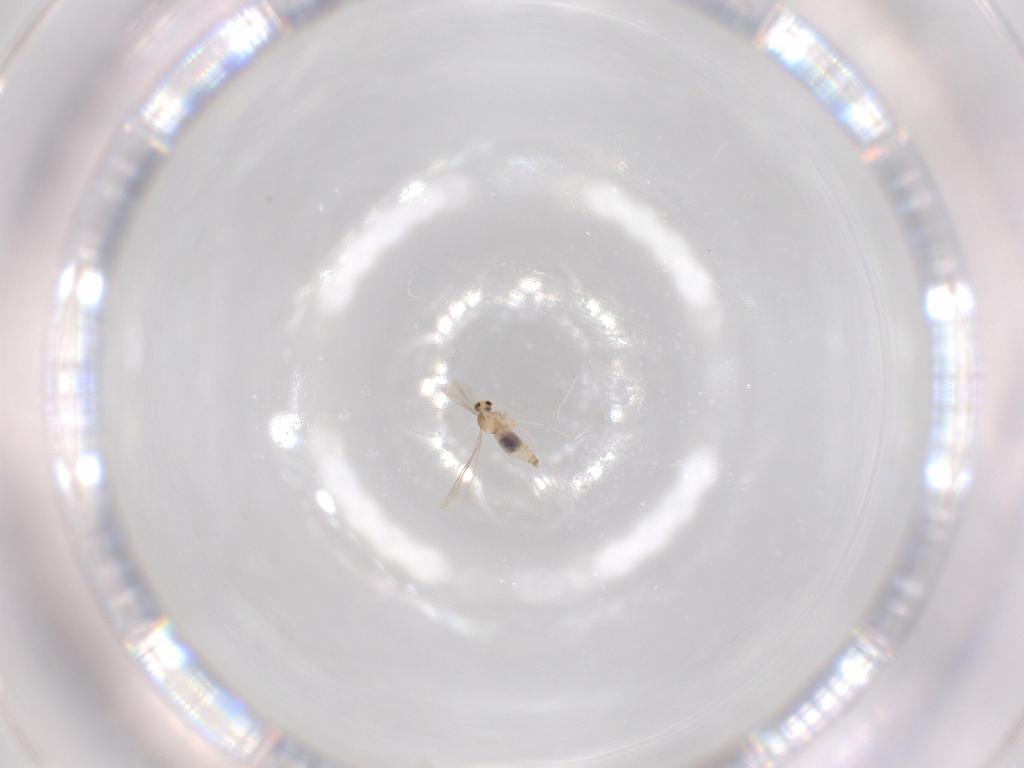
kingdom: Animalia
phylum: Arthropoda
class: Insecta
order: Diptera
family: Cecidomyiidae
